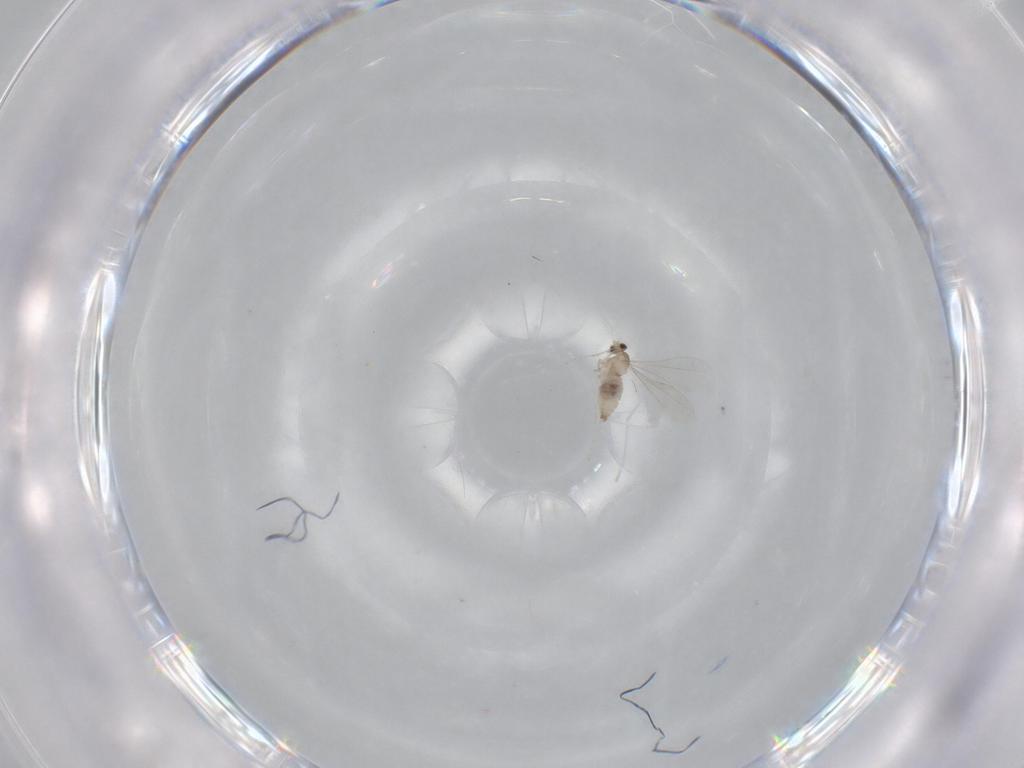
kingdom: Animalia
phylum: Arthropoda
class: Insecta
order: Diptera
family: Cecidomyiidae
